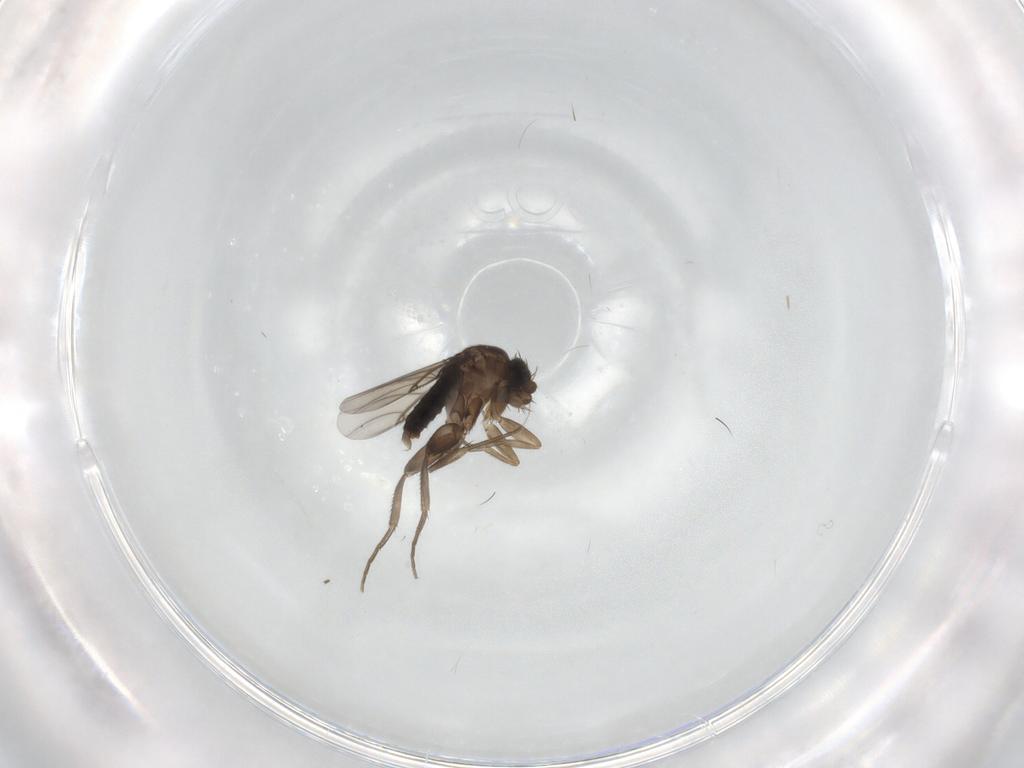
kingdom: Animalia
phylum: Arthropoda
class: Insecta
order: Diptera
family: Phoridae
